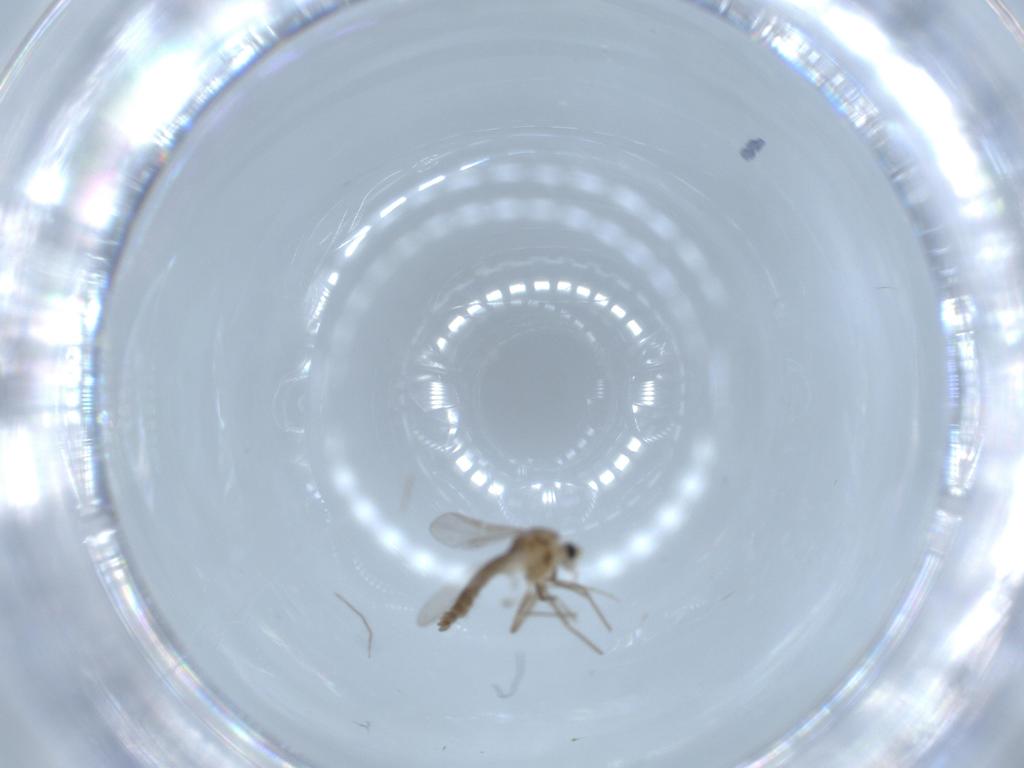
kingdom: Animalia
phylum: Arthropoda
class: Insecta
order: Diptera
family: Chironomidae
